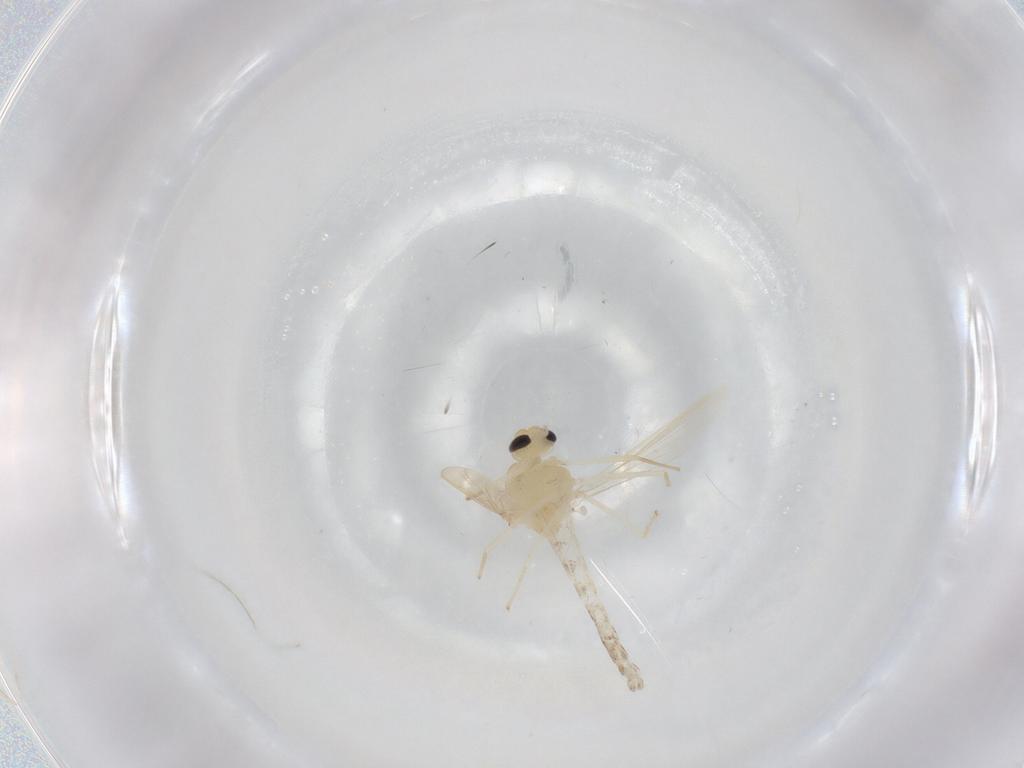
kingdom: Animalia
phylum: Arthropoda
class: Insecta
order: Diptera
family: Chironomidae
